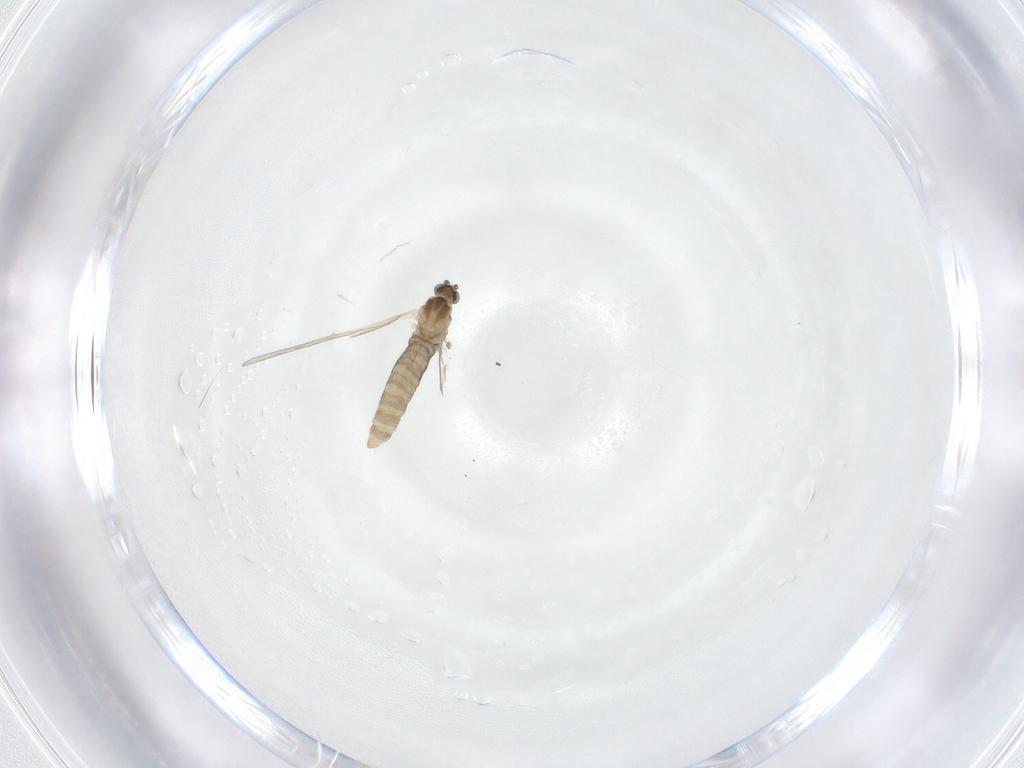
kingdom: Animalia
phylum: Arthropoda
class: Insecta
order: Diptera
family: Cecidomyiidae
